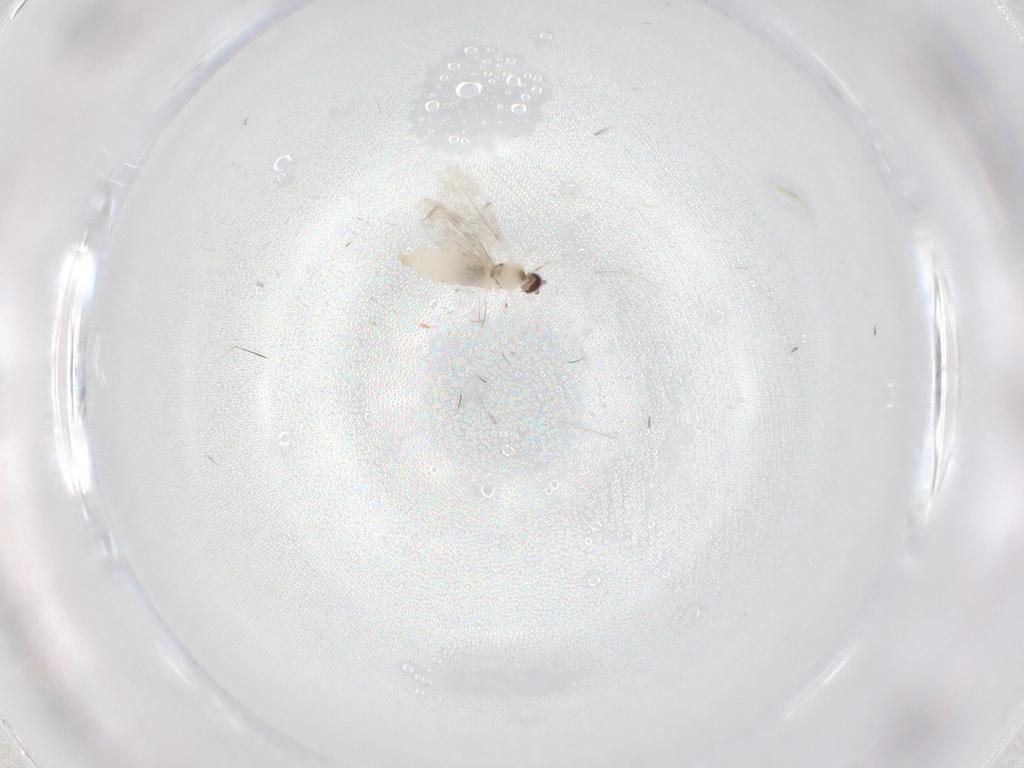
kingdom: Animalia
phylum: Arthropoda
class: Insecta
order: Diptera
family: Cecidomyiidae
